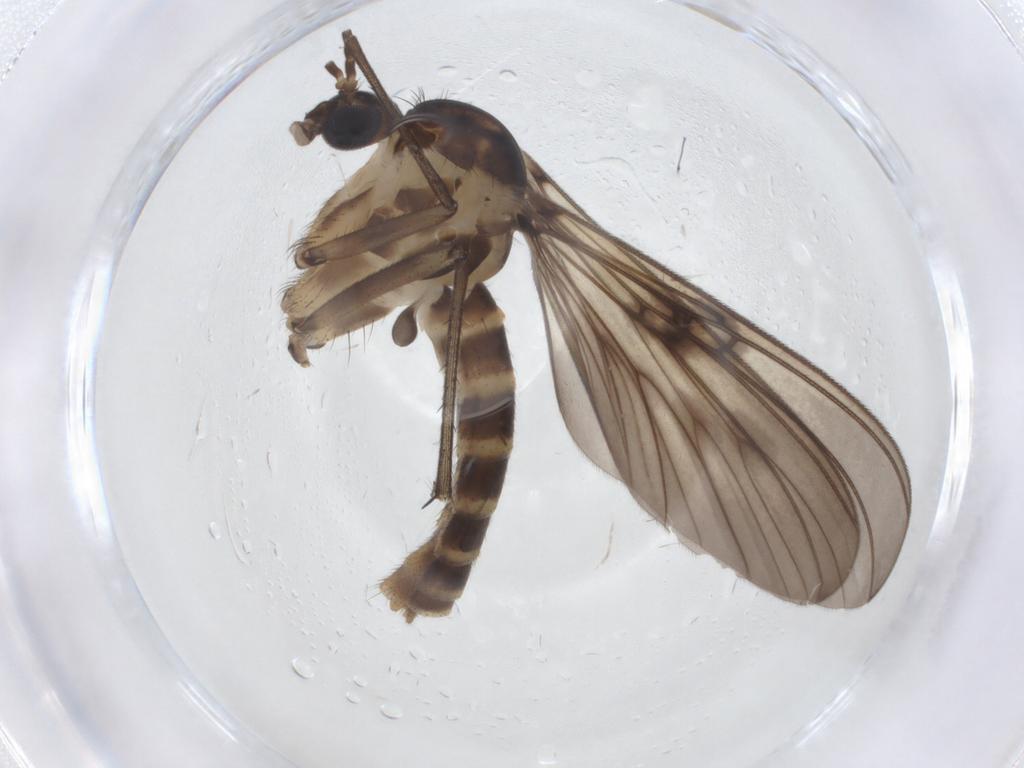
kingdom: Animalia
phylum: Arthropoda
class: Insecta
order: Diptera
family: Mycetophilidae
